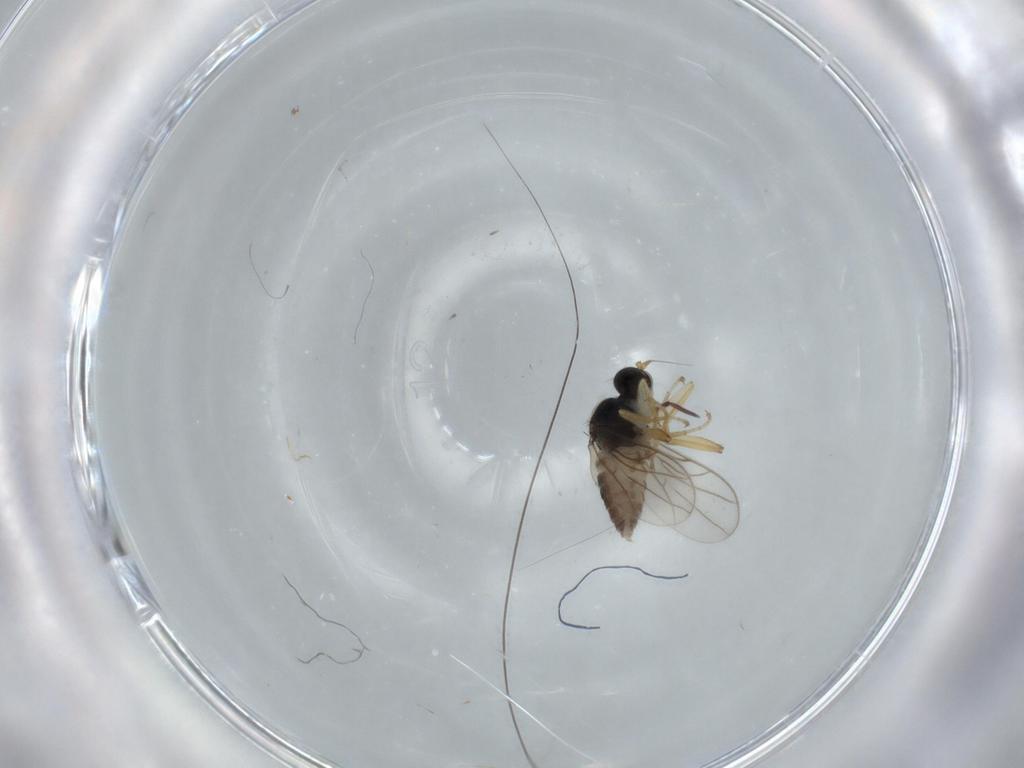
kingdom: Animalia
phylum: Arthropoda
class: Insecta
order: Diptera
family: Hybotidae
